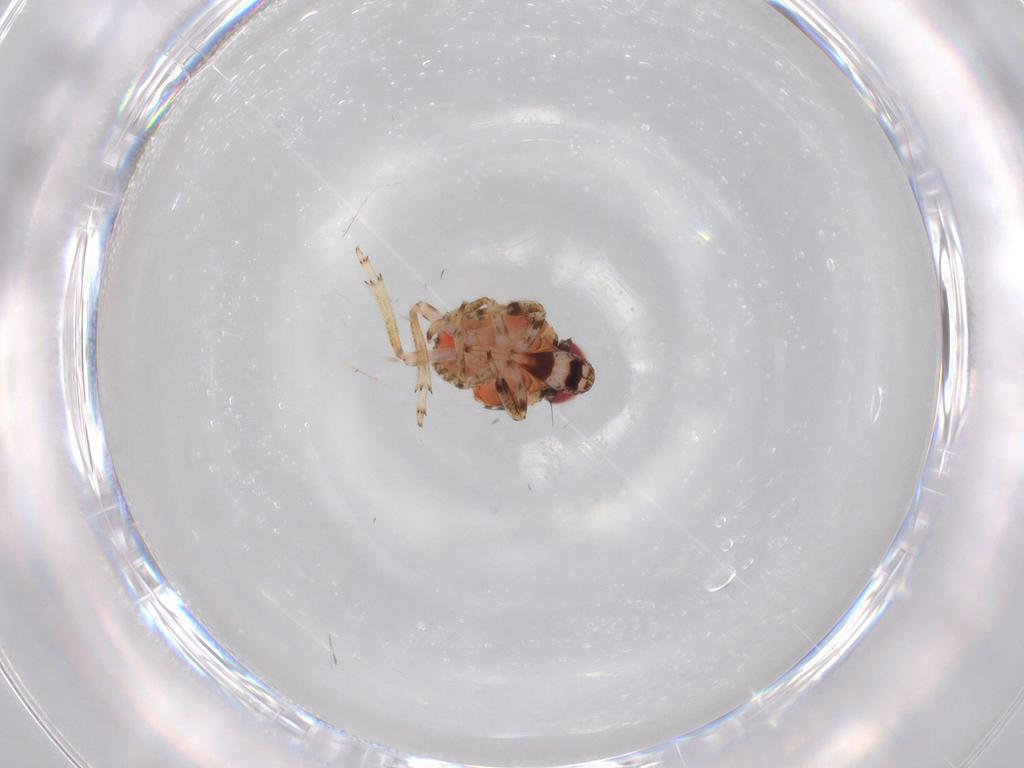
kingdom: Animalia
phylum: Arthropoda
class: Insecta
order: Hemiptera
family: Issidae
